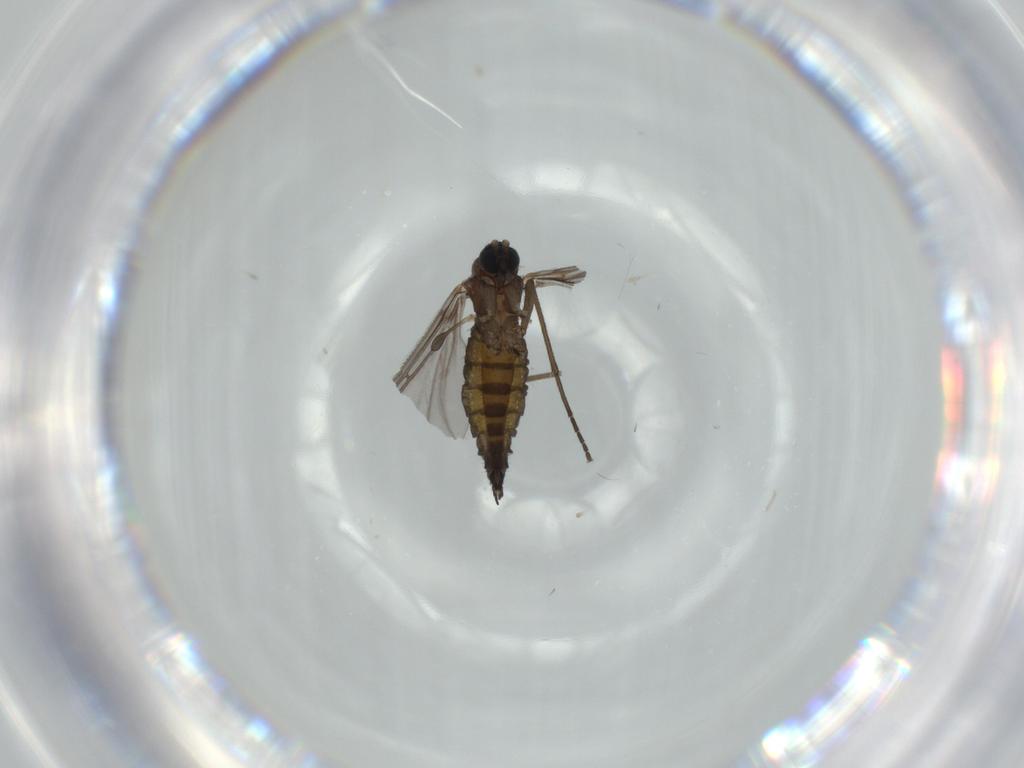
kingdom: Animalia
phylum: Arthropoda
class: Insecta
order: Diptera
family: Sciaridae
